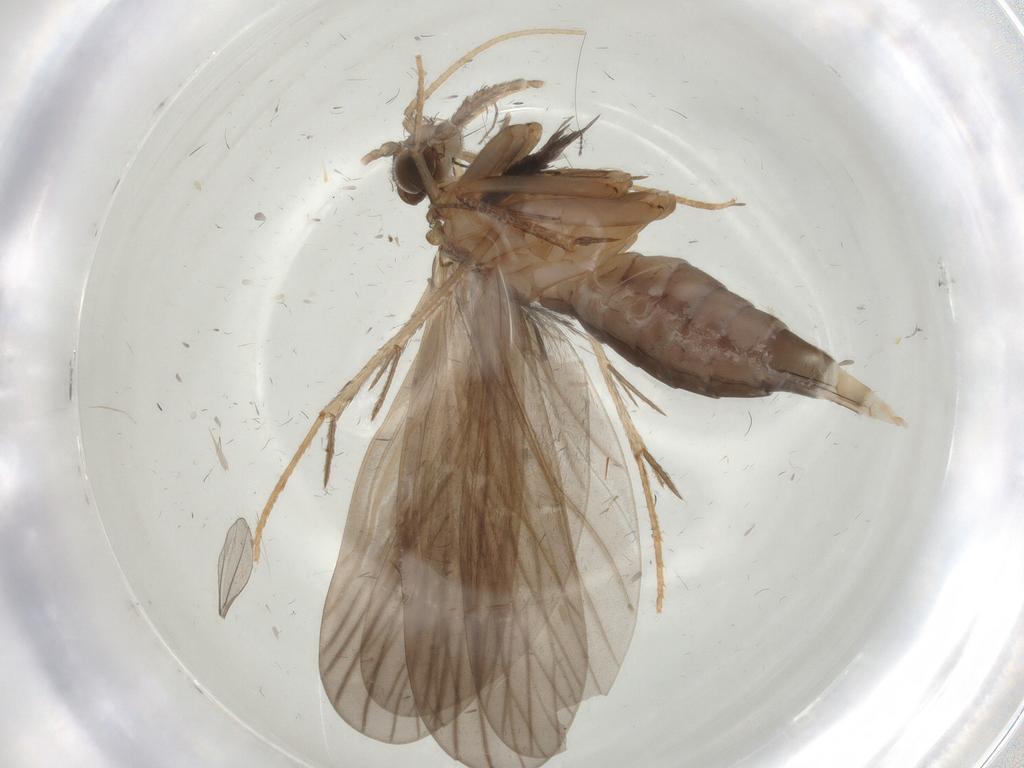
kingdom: Animalia
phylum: Arthropoda
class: Insecta
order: Trichoptera
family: Philopotamidae
